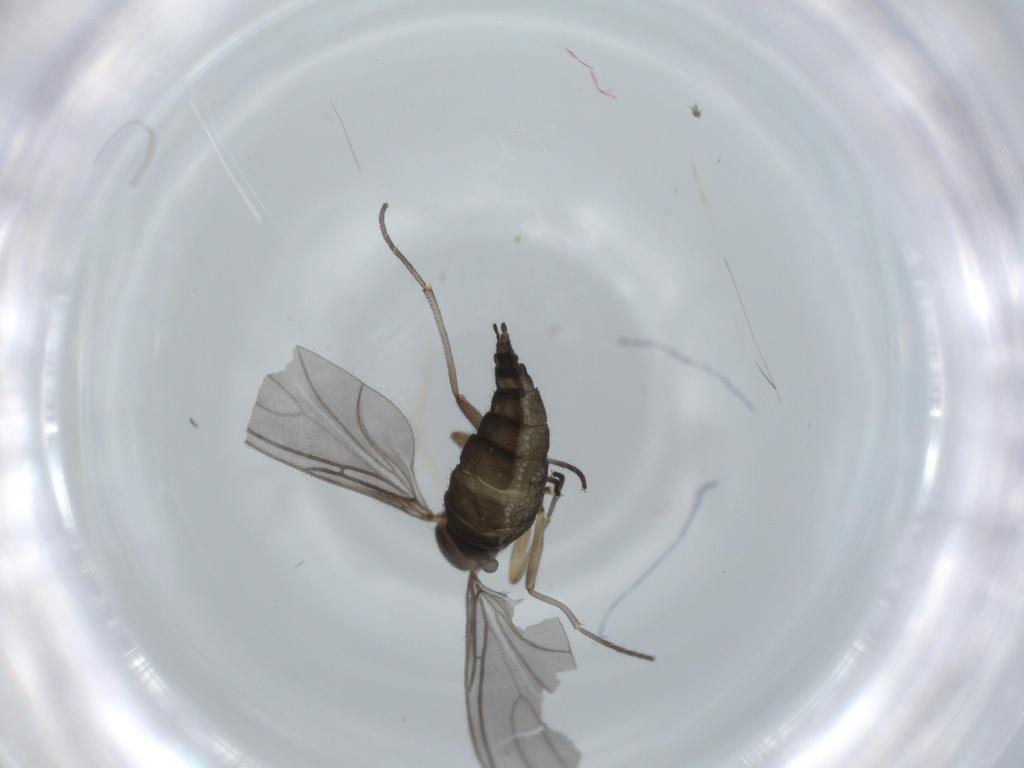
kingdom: Animalia
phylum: Arthropoda
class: Insecta
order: Diptera
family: Sciaridae
